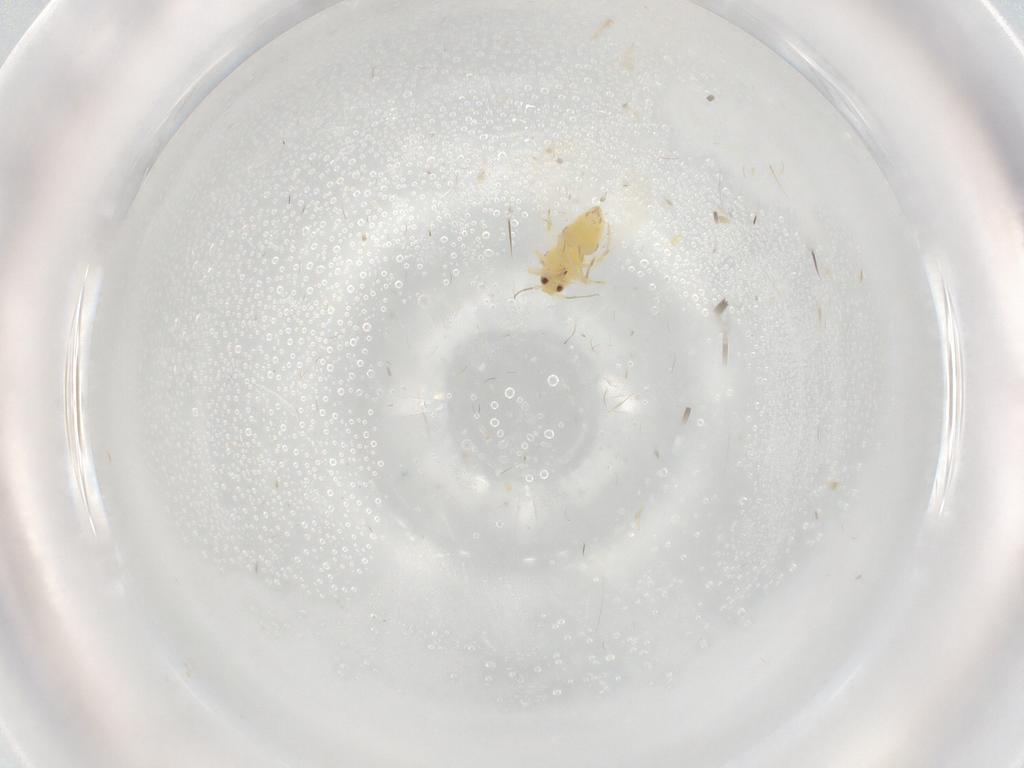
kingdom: Animalia
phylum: Arthropoda
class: Insecta
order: Hemiptera
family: Aphididae
